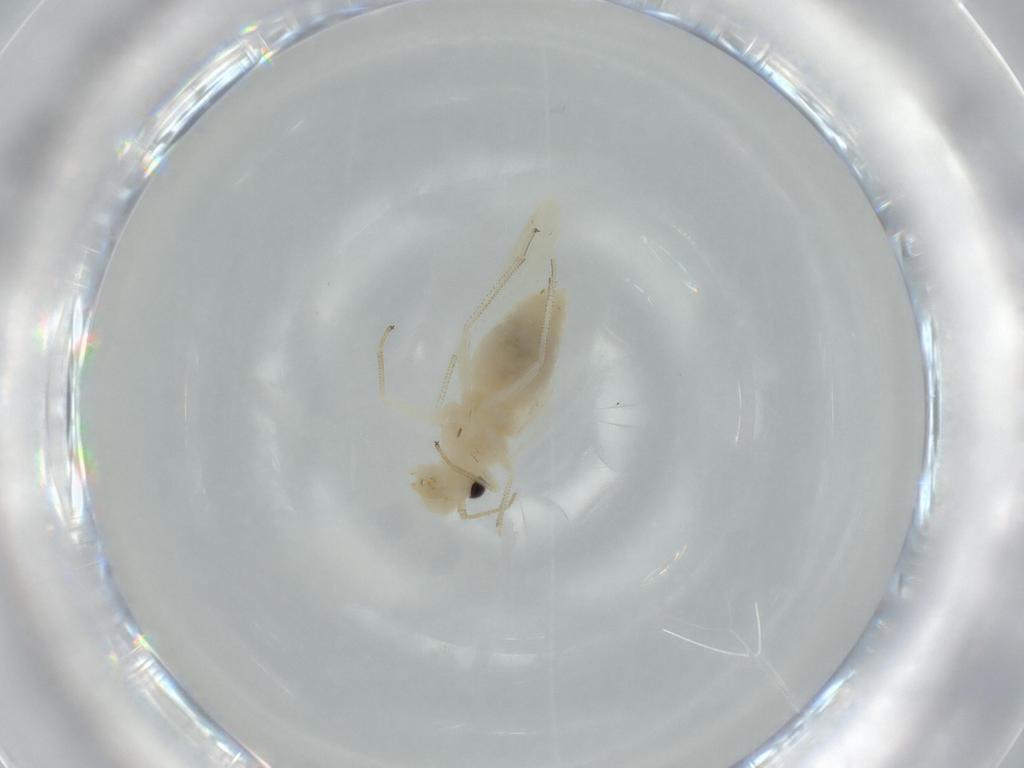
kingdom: Animalia
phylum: Arthropoda
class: Insecta
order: Psocodea
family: Caeciliusidae
